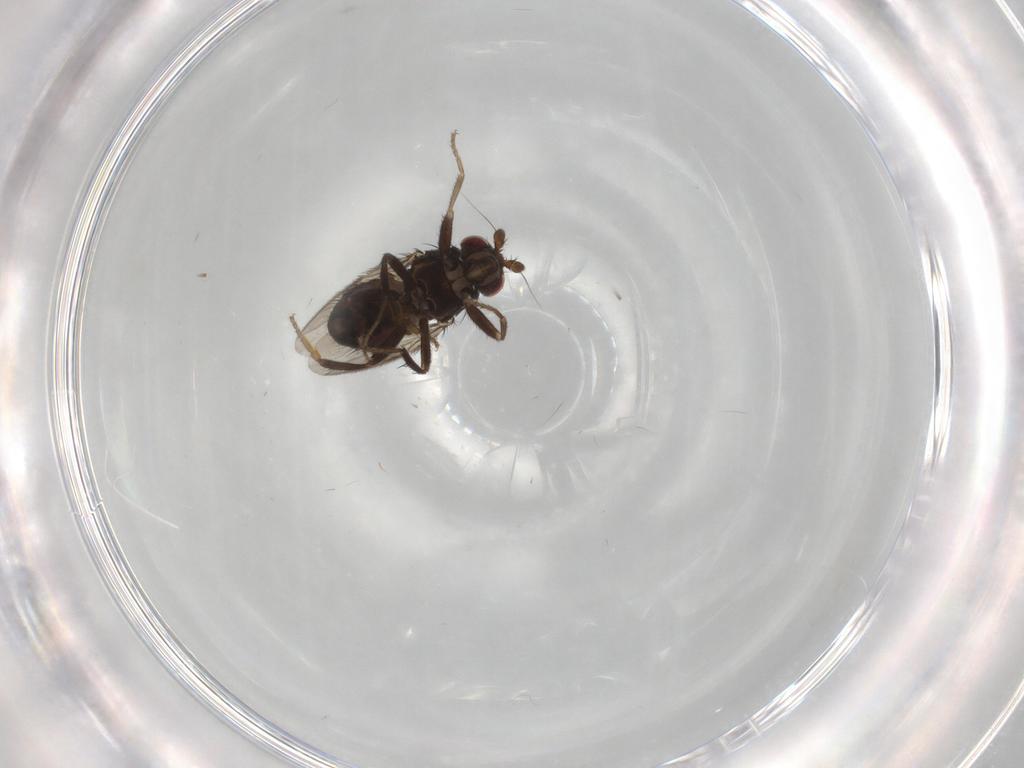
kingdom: Animalia
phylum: Arthropoda
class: Insecta
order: Diptera
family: Sphaeroceridae
